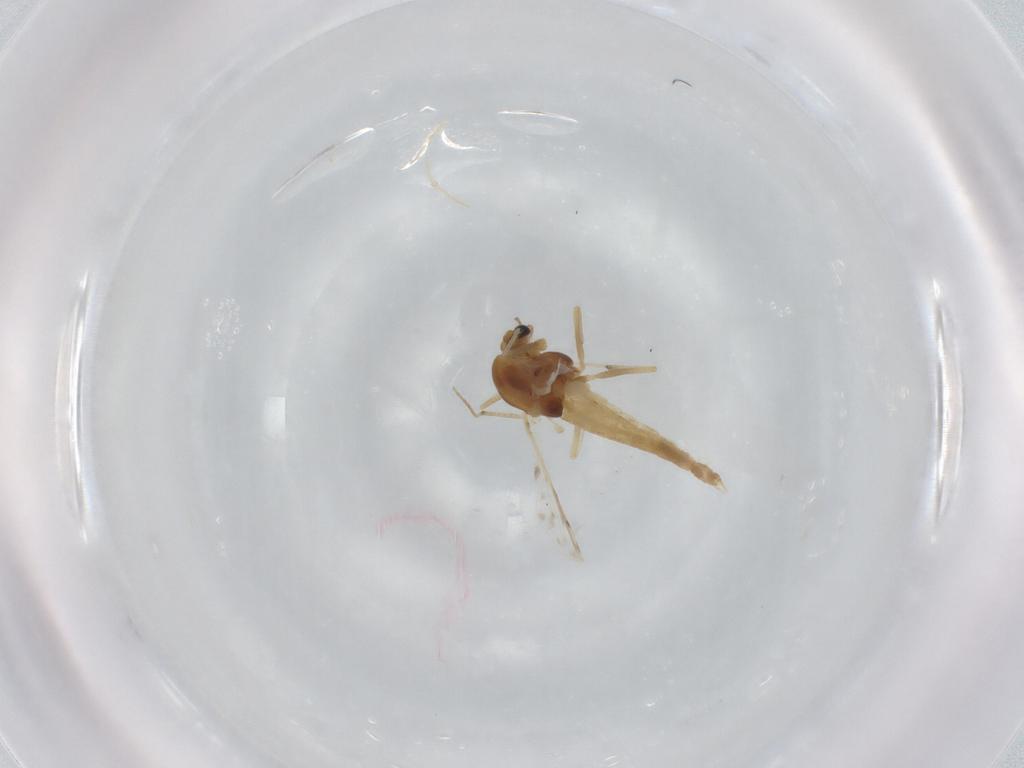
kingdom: Animalia
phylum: Arthropoda
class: Insecta
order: Diptera
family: Chironomidae
